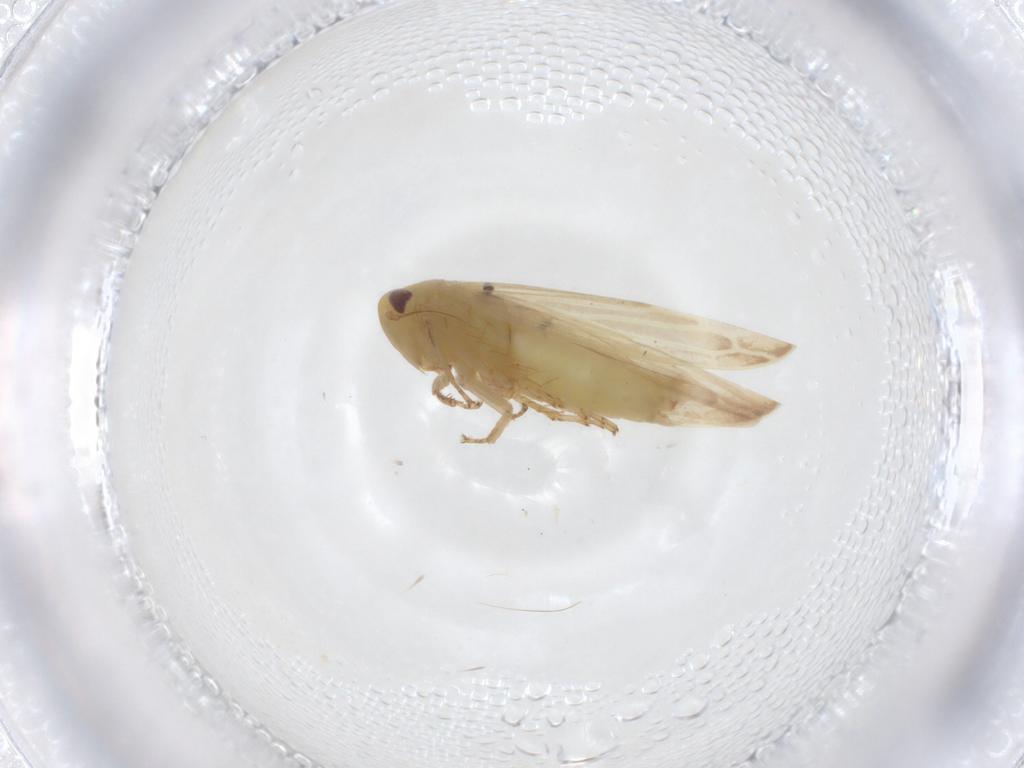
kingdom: Animalia
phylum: Arthropoda
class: Insecta
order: Hemiptera
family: Cicadellidae
